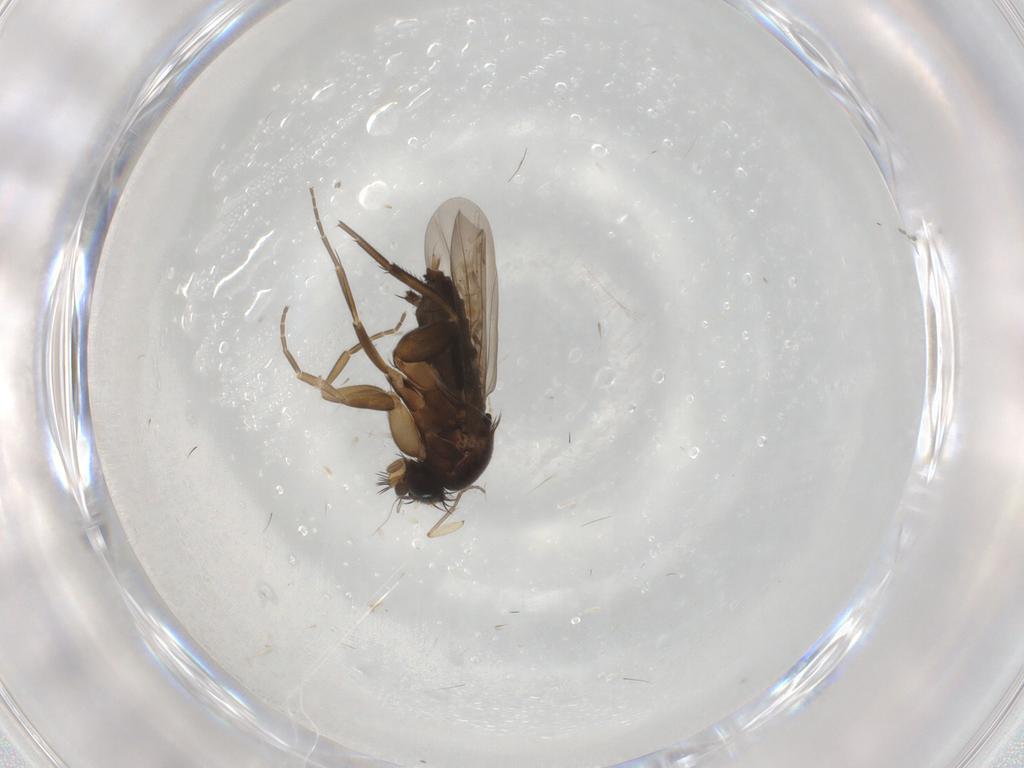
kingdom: Animalia
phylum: Arthropoda
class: Insecta
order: Diptera
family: Phoridae
